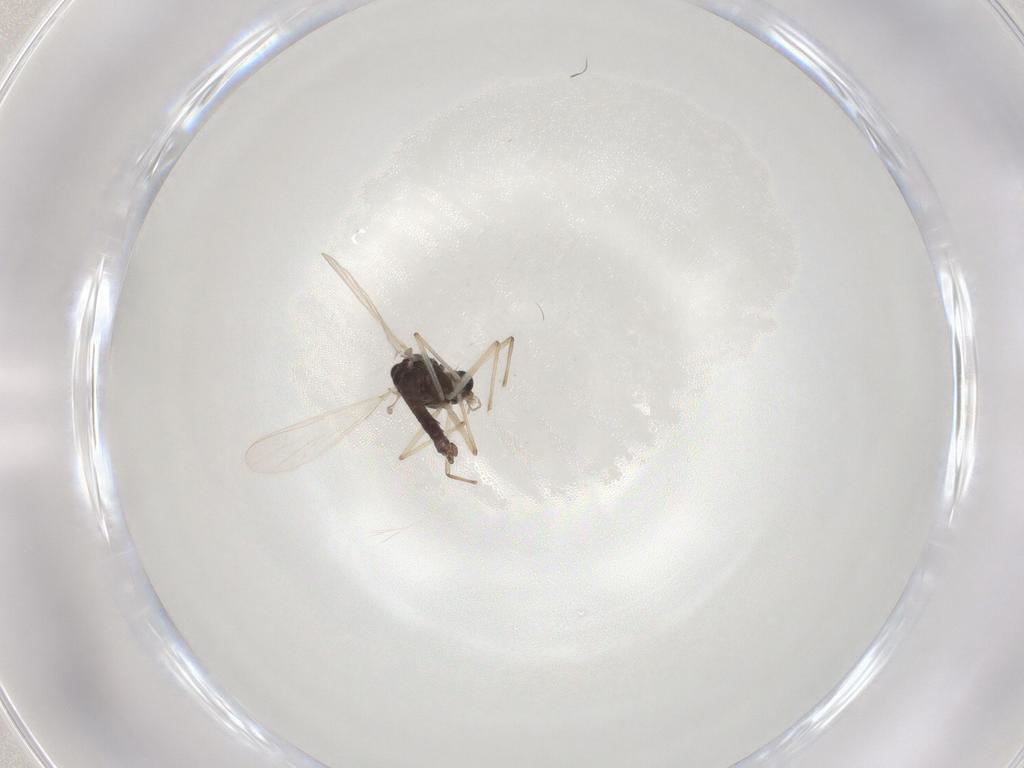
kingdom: Animalia
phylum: Arthropoda
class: Insecta
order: Diptera
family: Chironomidae
